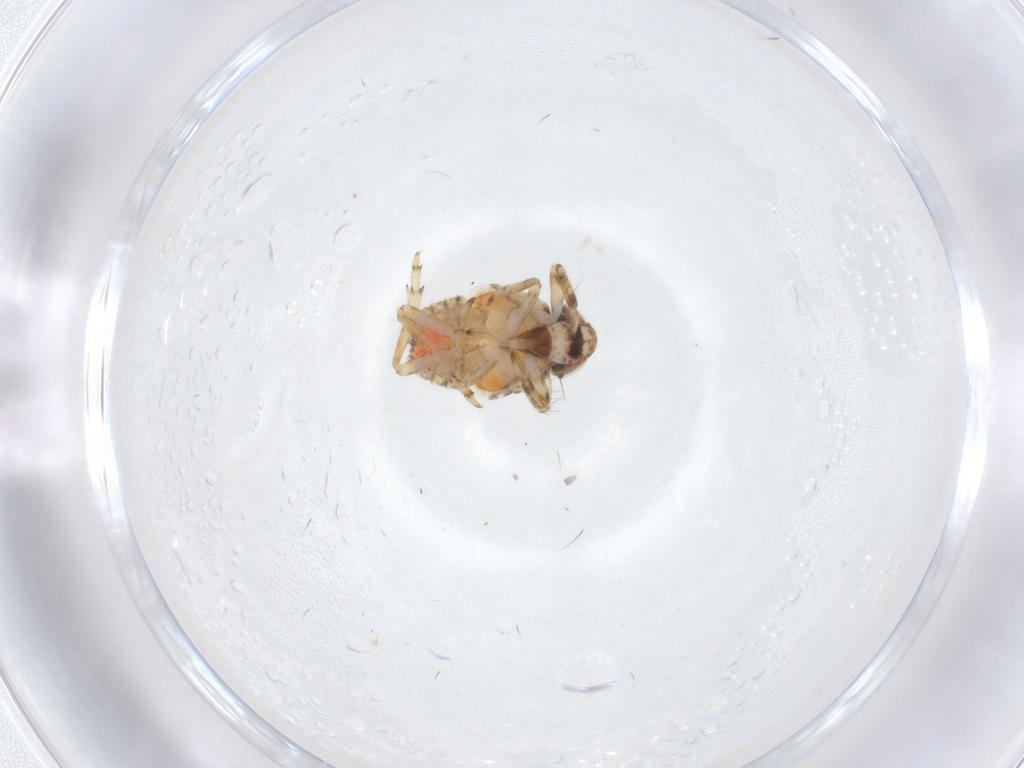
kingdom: Animalia
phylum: Arthropoda
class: Insecta
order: Hemiptera
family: Issidae
